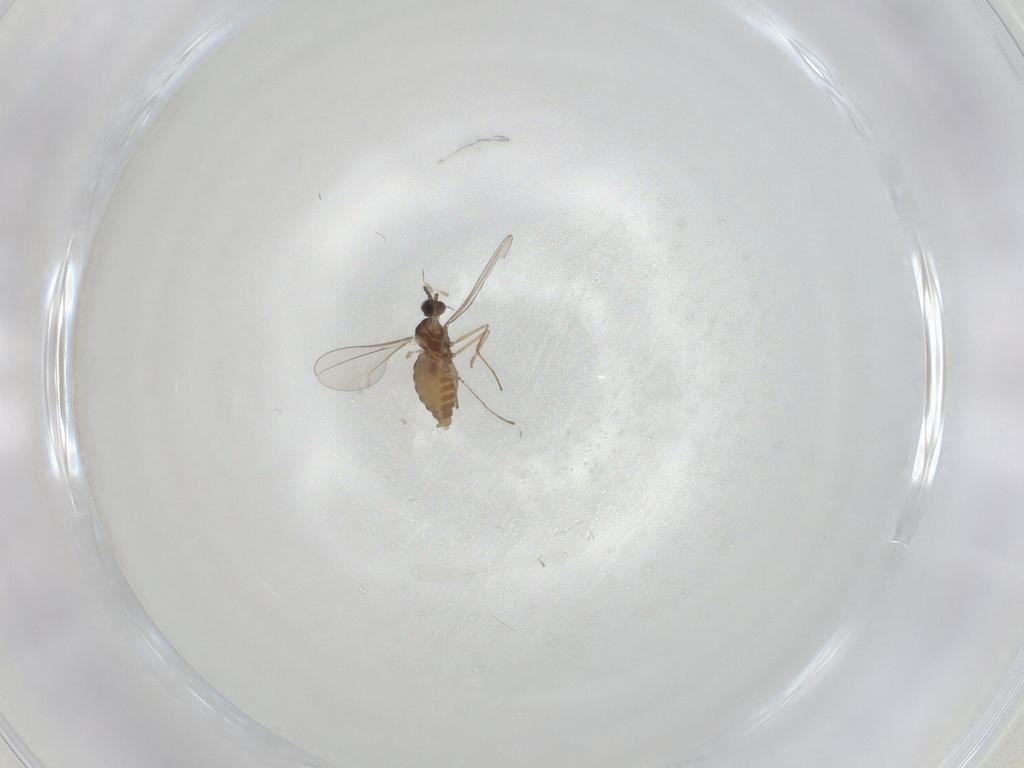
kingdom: Animalia
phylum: Arthropoda
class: Insecta
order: Diptera
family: Cecidomyiidae
